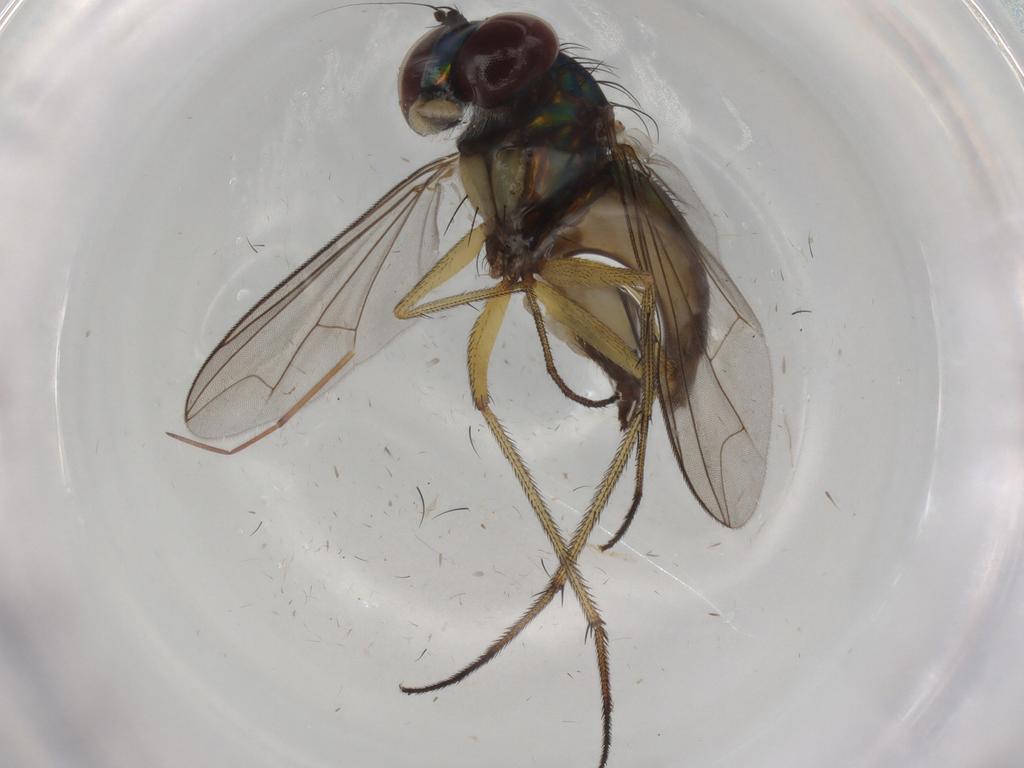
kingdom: Animalia
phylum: Arthropoda
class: Insecta
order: Diptera
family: Dolichopodidae
